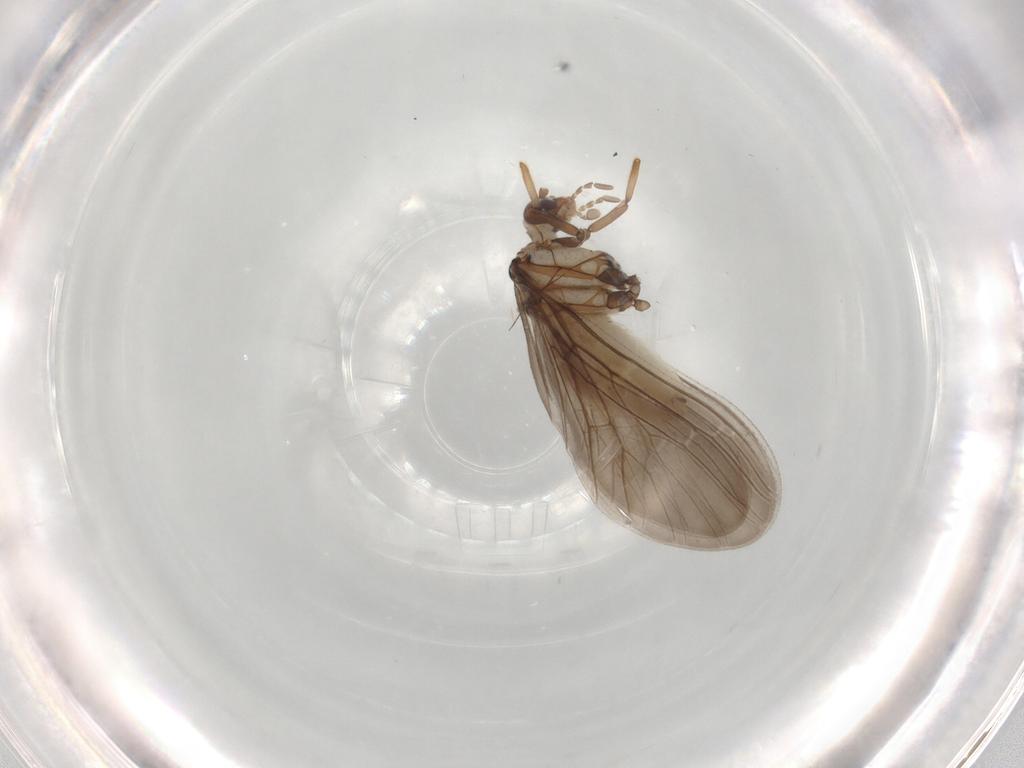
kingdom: Animalia
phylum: Arthropoda
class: Insecta
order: Neuroptera
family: Coniopterygidae
